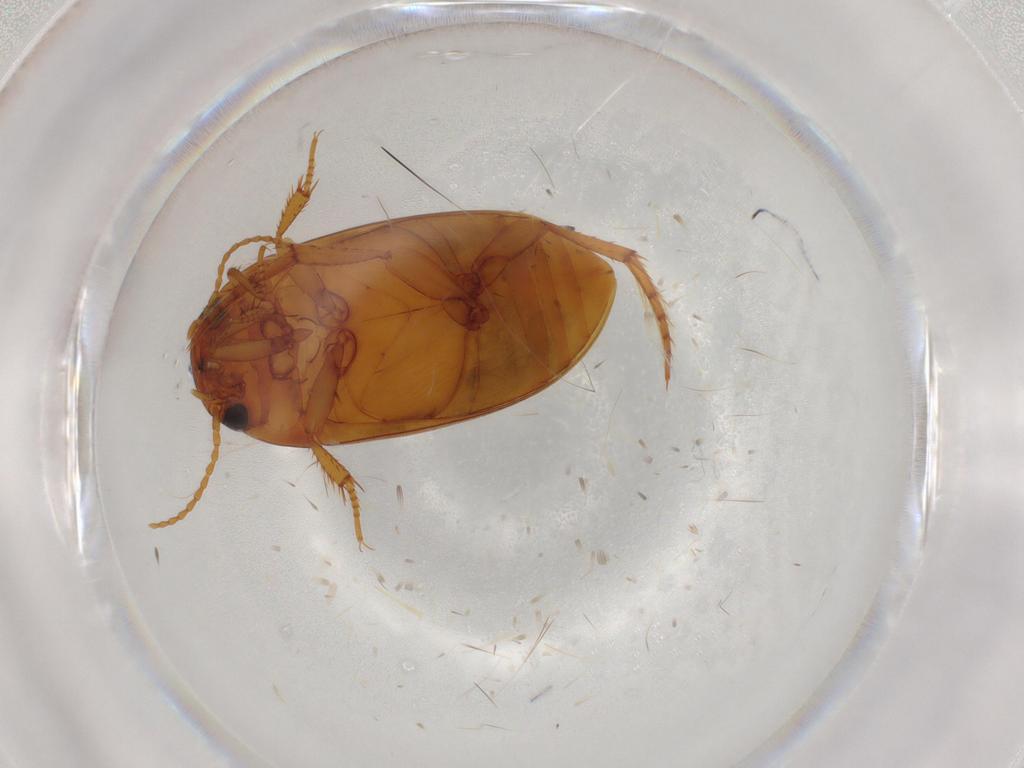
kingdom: Animalia
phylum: Arthropoda
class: Insecta
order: Coleoptera
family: Dytiscidae
